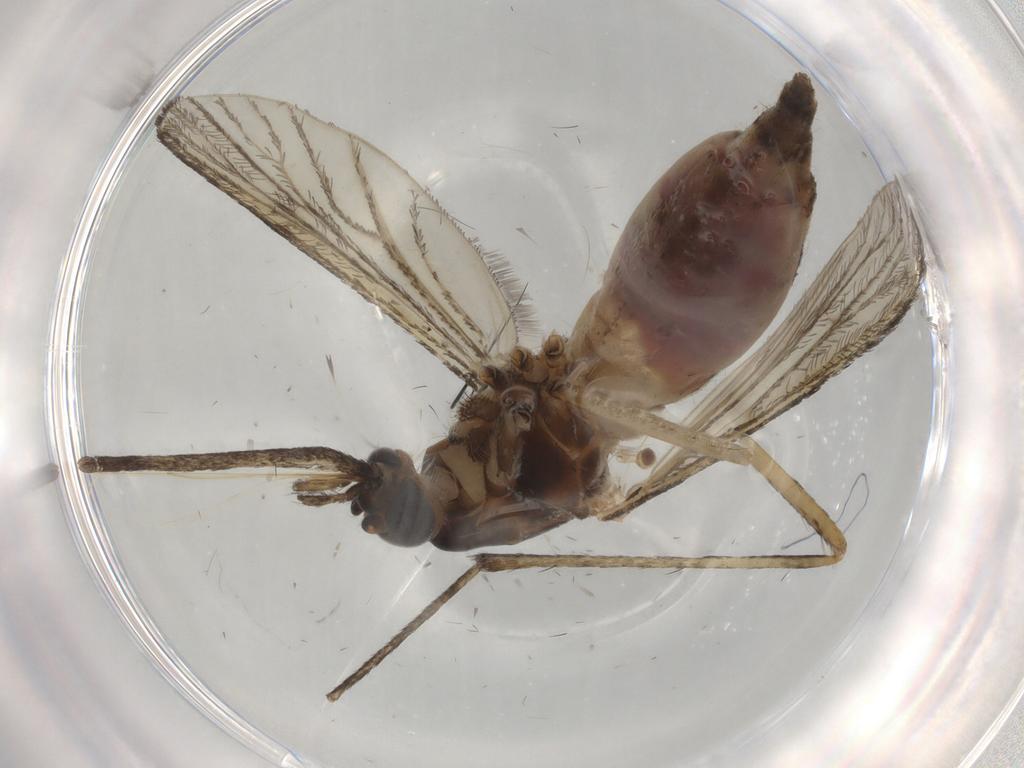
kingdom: Animalia
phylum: Arthropoda
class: Insecta
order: Diptera
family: Culicidae
